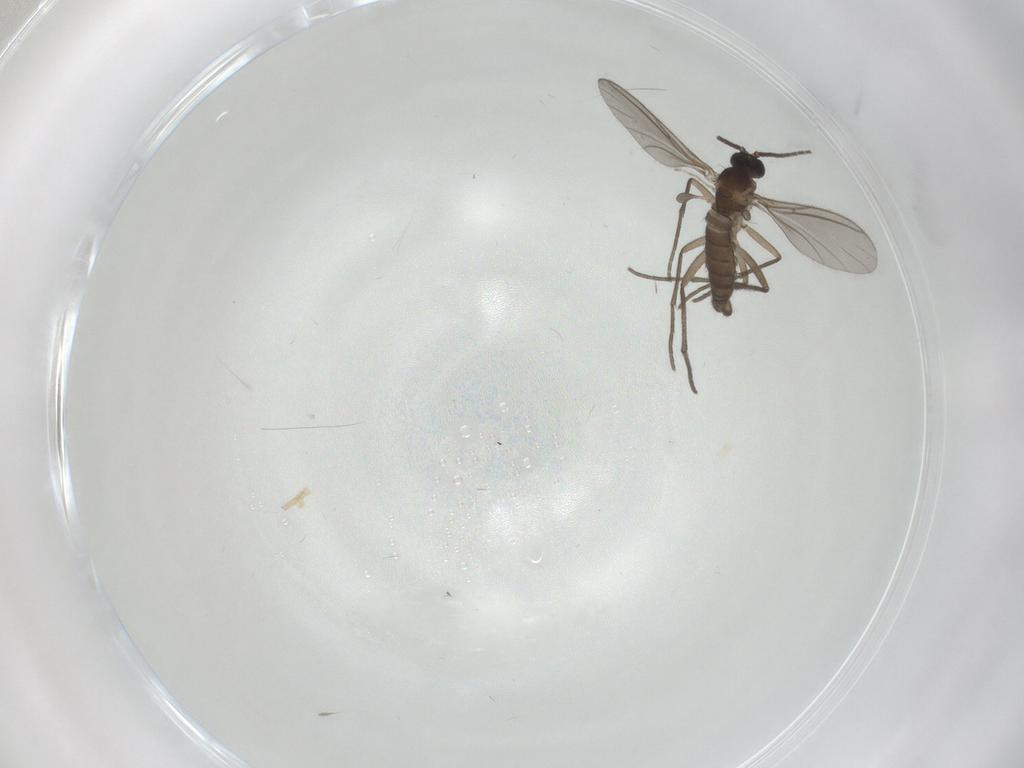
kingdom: Animalia
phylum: Arthropoda
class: Insecta
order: Diptera
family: Sciaridae
